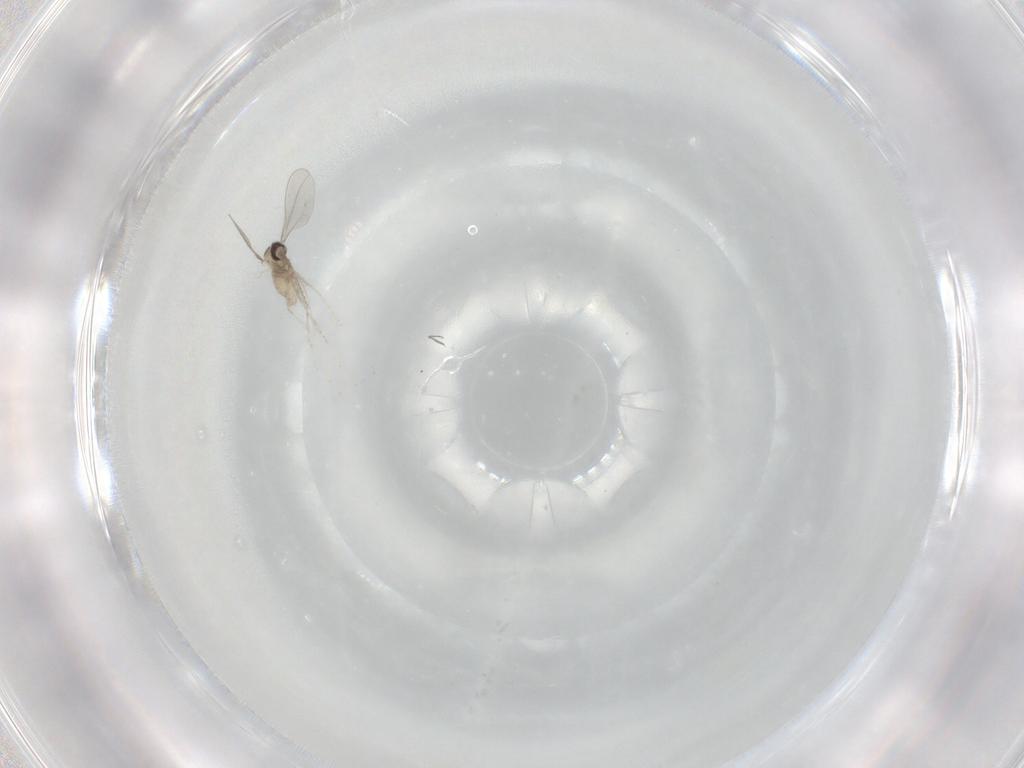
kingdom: Animalia
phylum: Arthropoda
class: Insecta
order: Diptera
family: Cecidomyiidae
